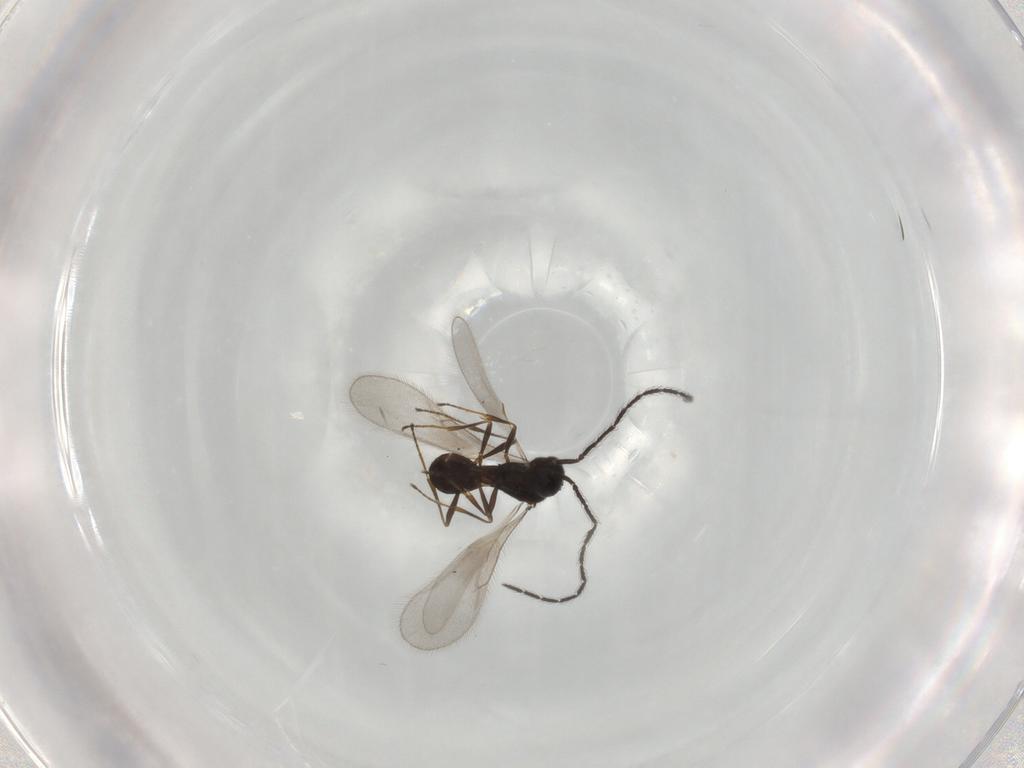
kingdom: Animalia
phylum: Arthropoda
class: Insecta
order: Hymenoptera
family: Scelionidae
